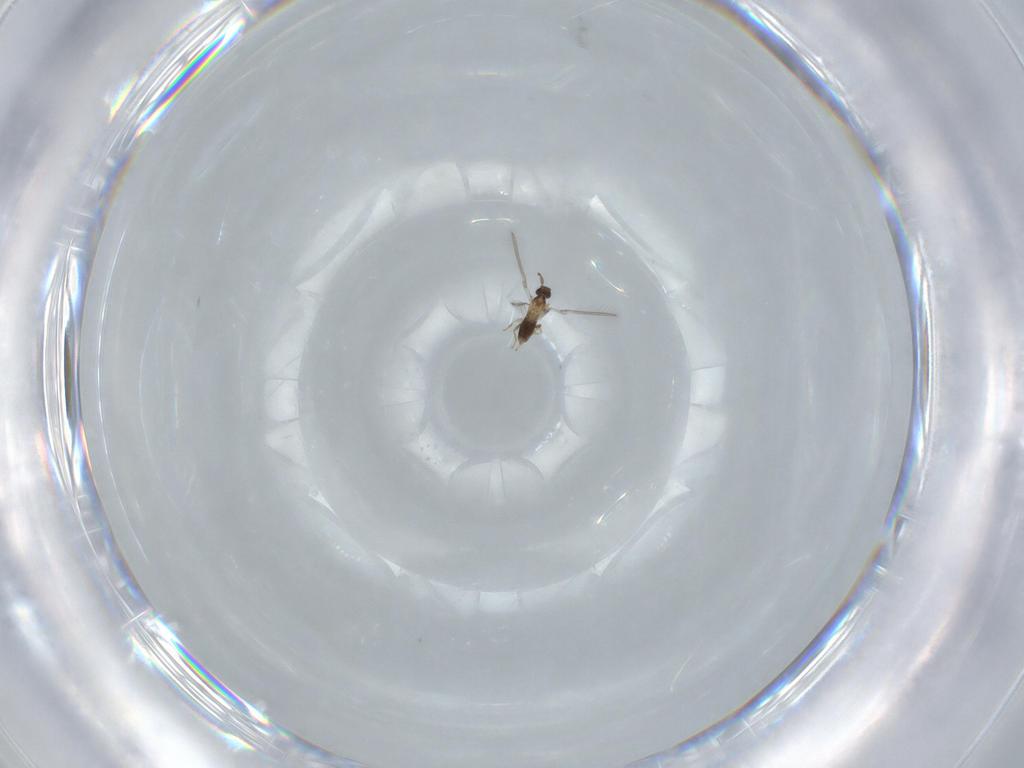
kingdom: Animalia
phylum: Arthropoda
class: Insecta
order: Hymenoptera
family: Mymaridae
